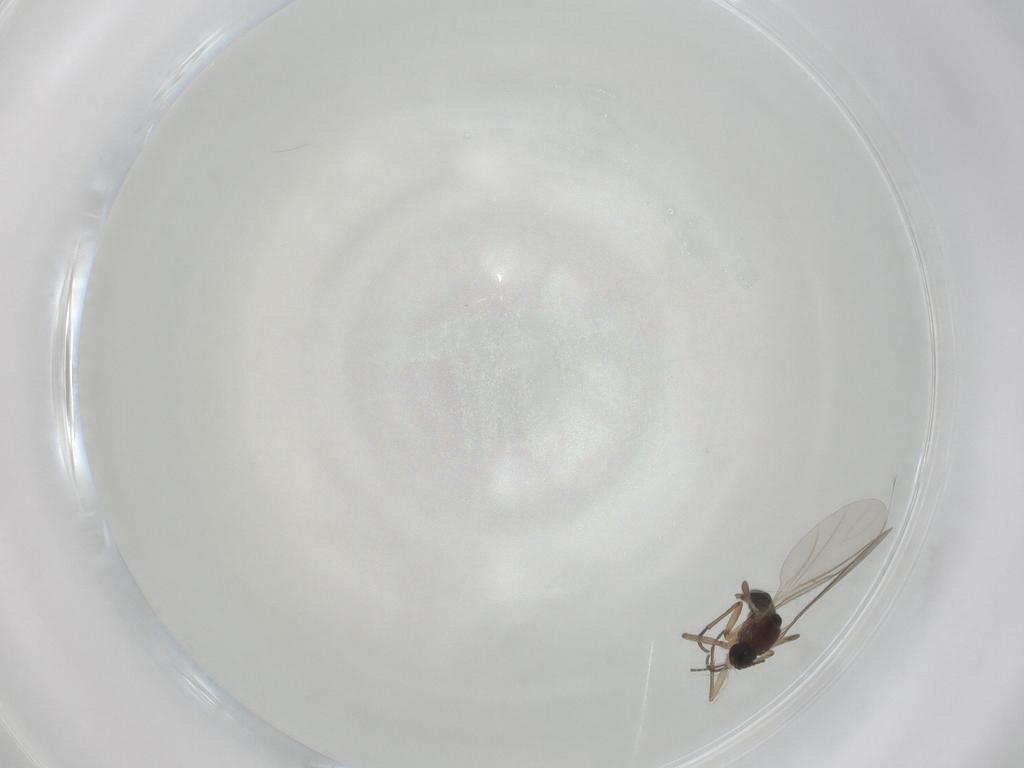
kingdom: Animalia
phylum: Arthropoda
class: Insecta
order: Diptera
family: Sciaridae
